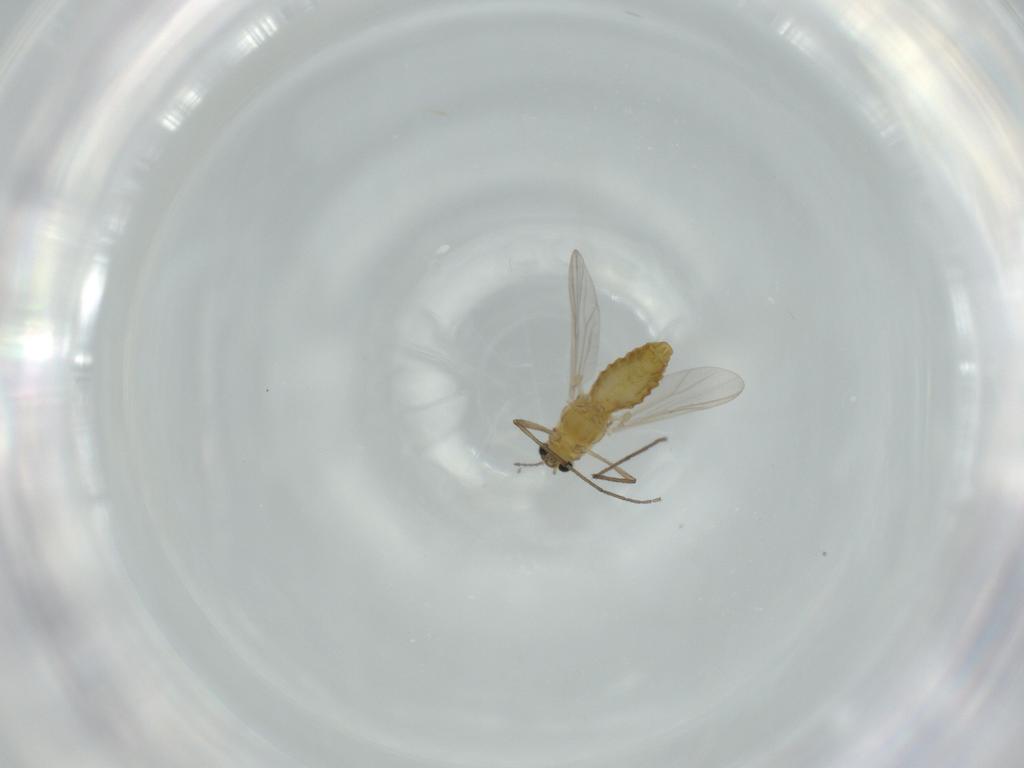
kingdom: Animalia
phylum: Arthropoda
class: Insecta
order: Diptera
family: Chironomidae
